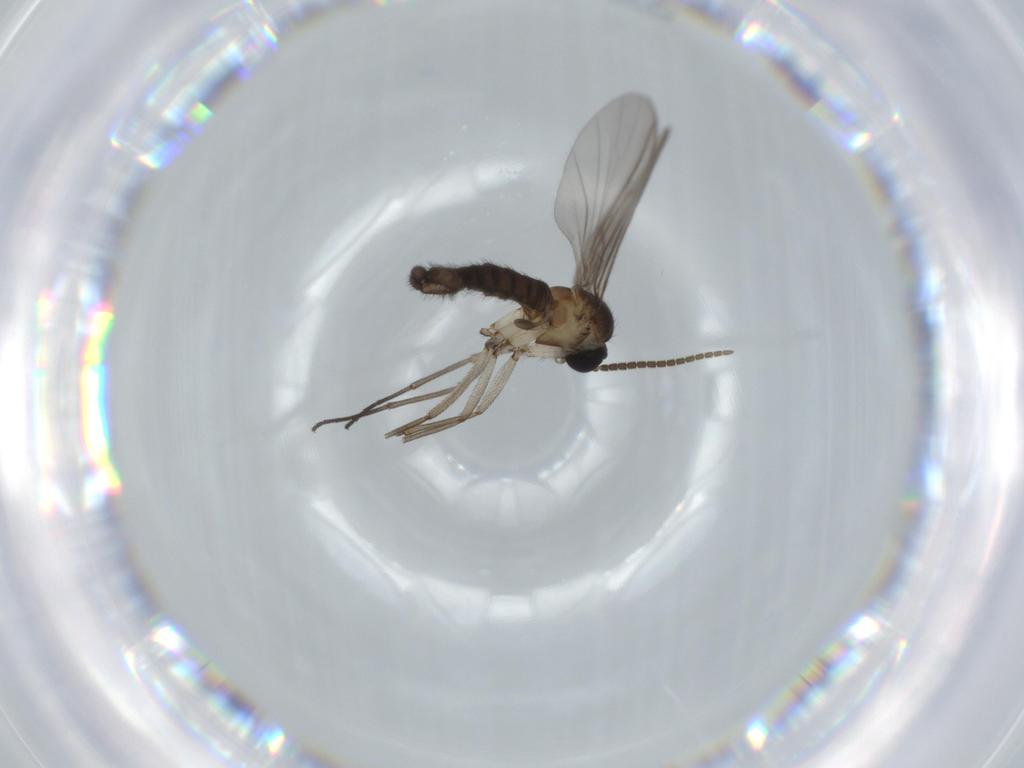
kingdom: Animalia
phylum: Arthropoda
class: Insecta
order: Diptera
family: Sciaridae
